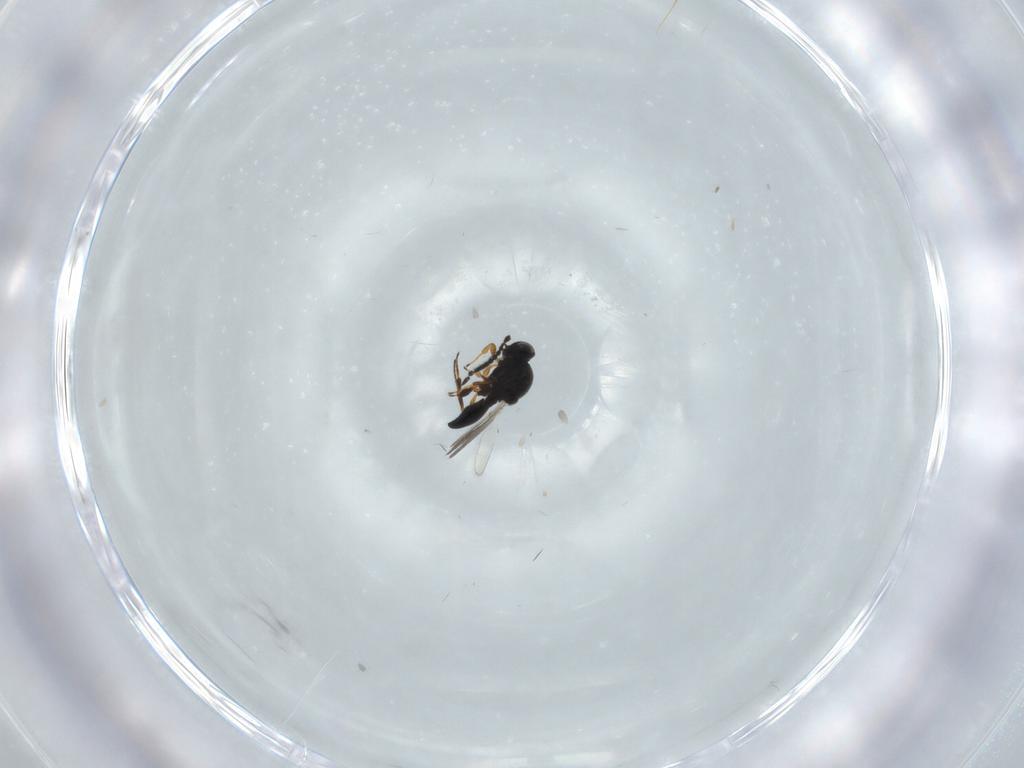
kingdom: Animalia
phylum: Arthropoda
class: Insecta
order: Hymenoptera
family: Platygastridae
